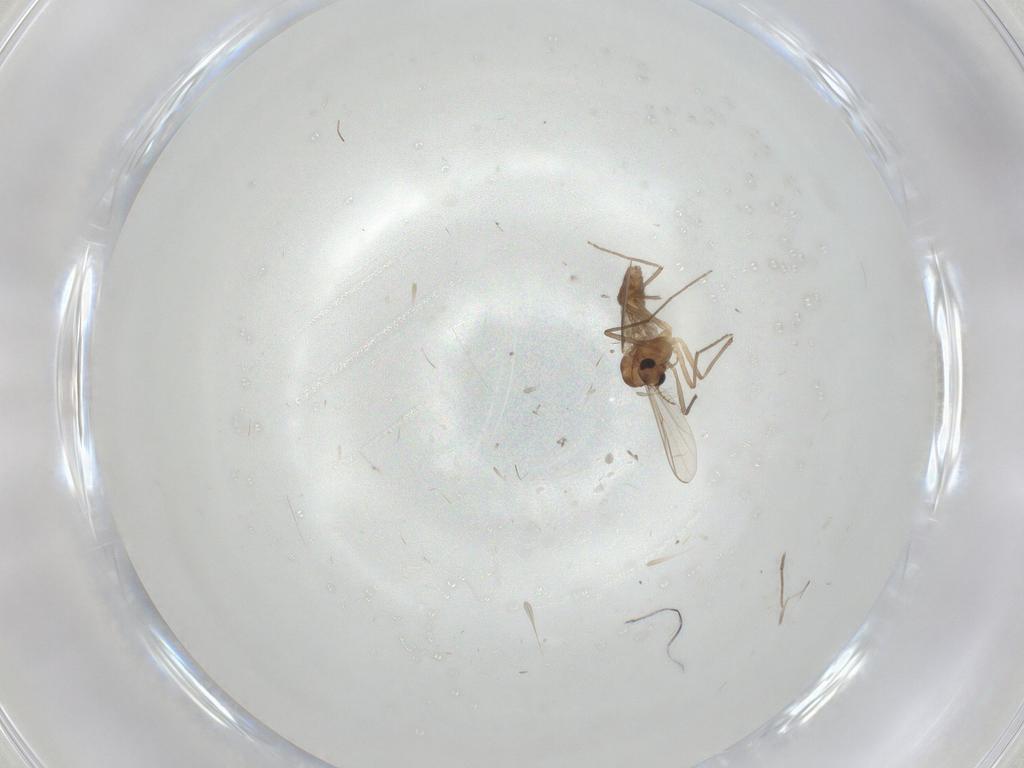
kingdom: Animalia
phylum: Arthropoda
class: Insecta
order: Diptera
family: Chironomidae
